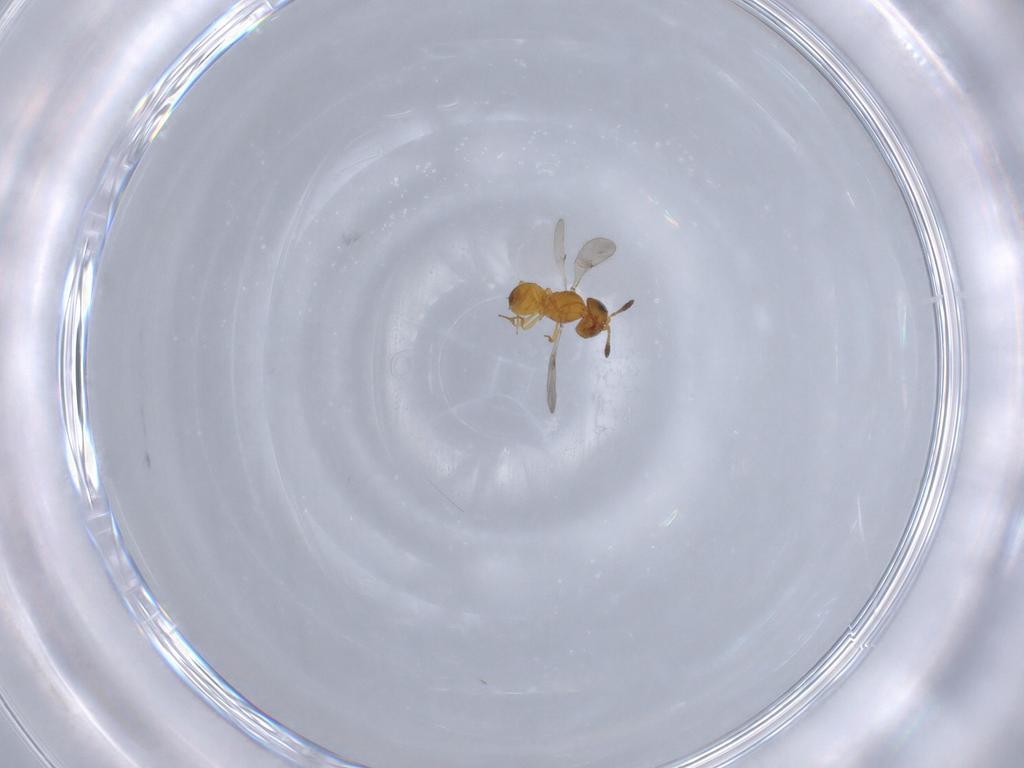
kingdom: Animalia
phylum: Arthropoda
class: Insecta
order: Hymenoptera
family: Scelionidae
